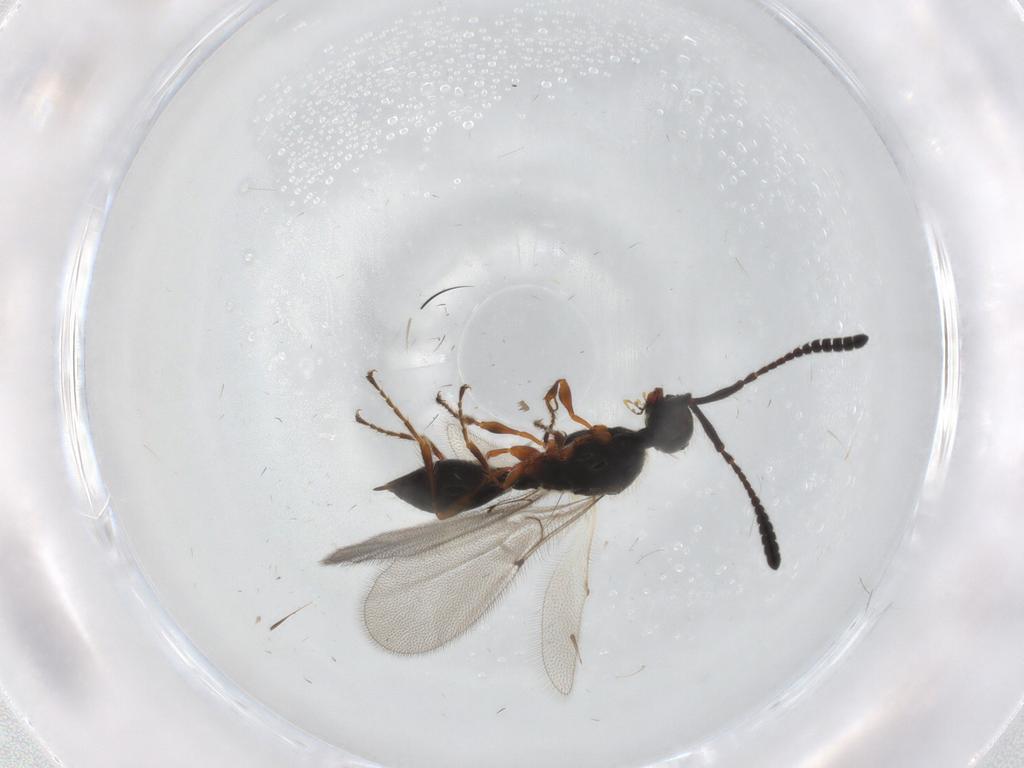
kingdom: Animalia
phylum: Arthropoda
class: Insecta
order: Hymenoptera
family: Diapriidae
